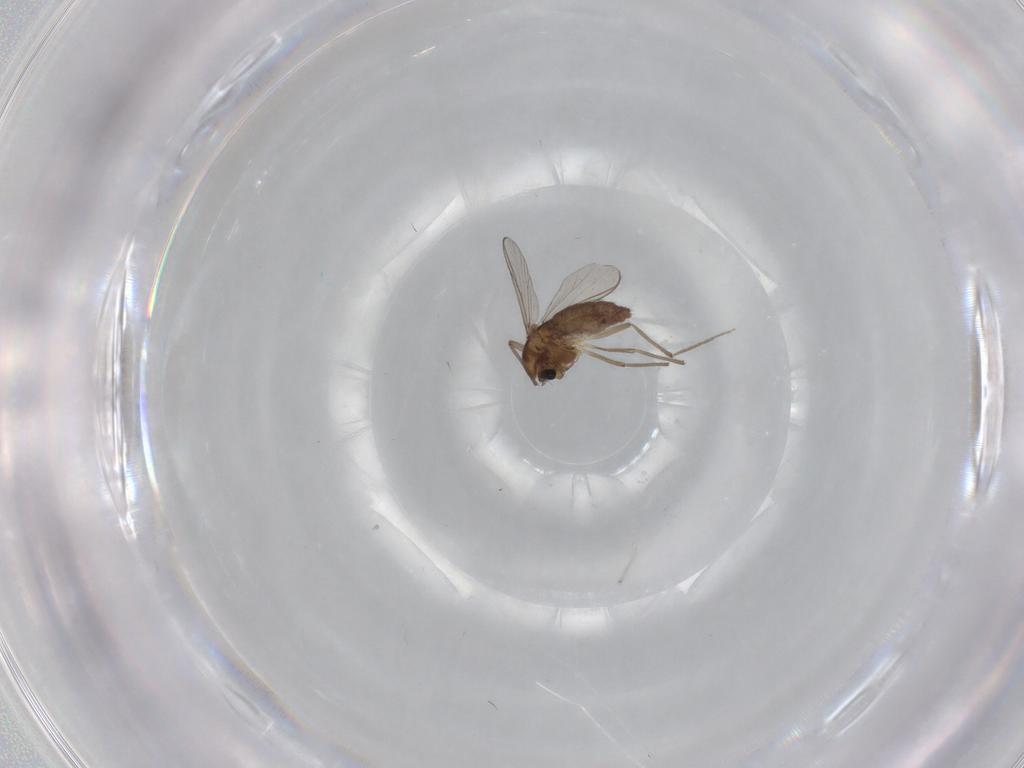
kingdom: Animalia
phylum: Arthropoda
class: Insecta
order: Diptera
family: Chironomidae
